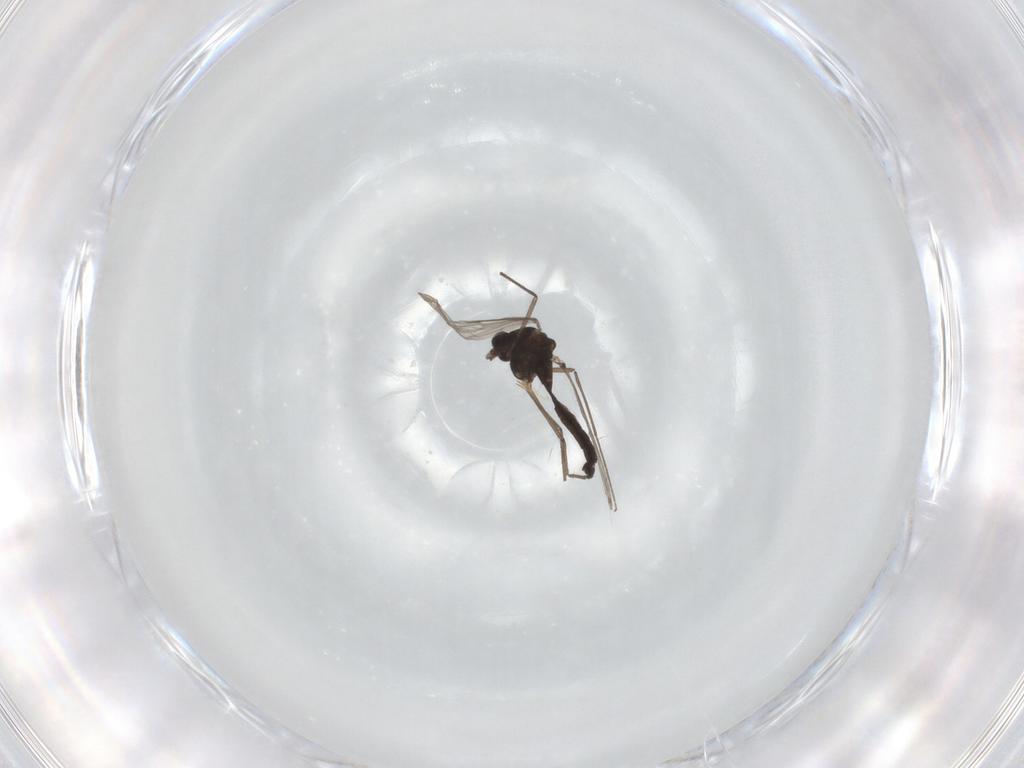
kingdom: Animalia
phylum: Arthropoda
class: Insecta
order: Diptera
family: Chironomidae
